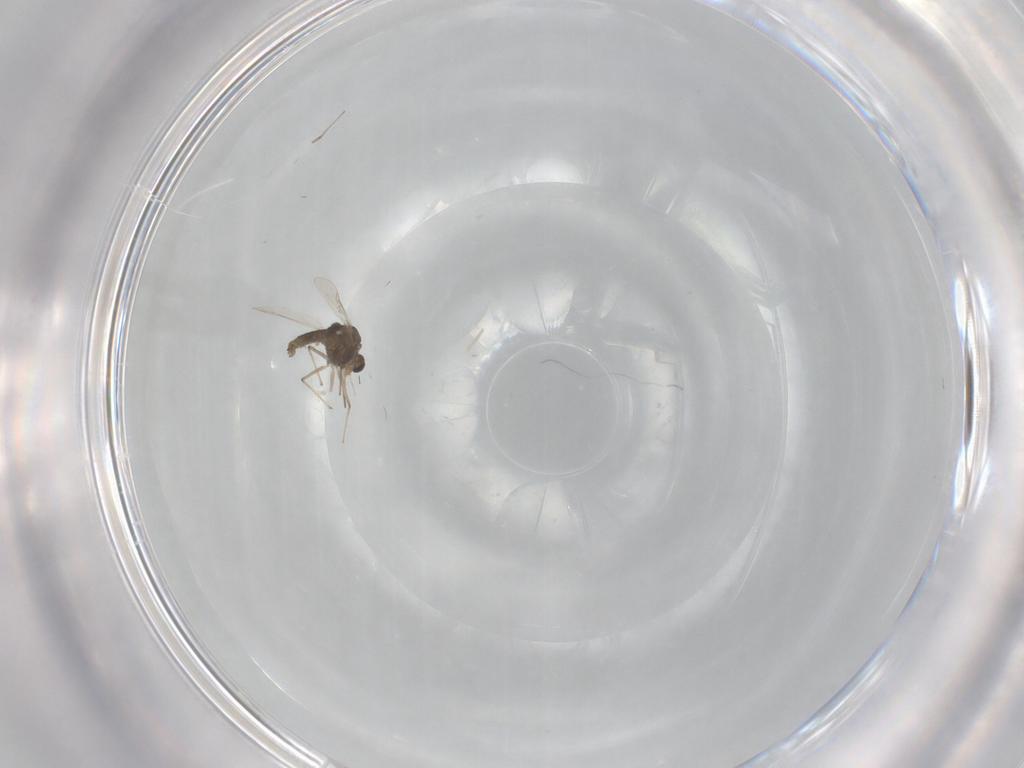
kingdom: Animalia
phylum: Arthropoda
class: Insecta
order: Diptera
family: Chironomidae
